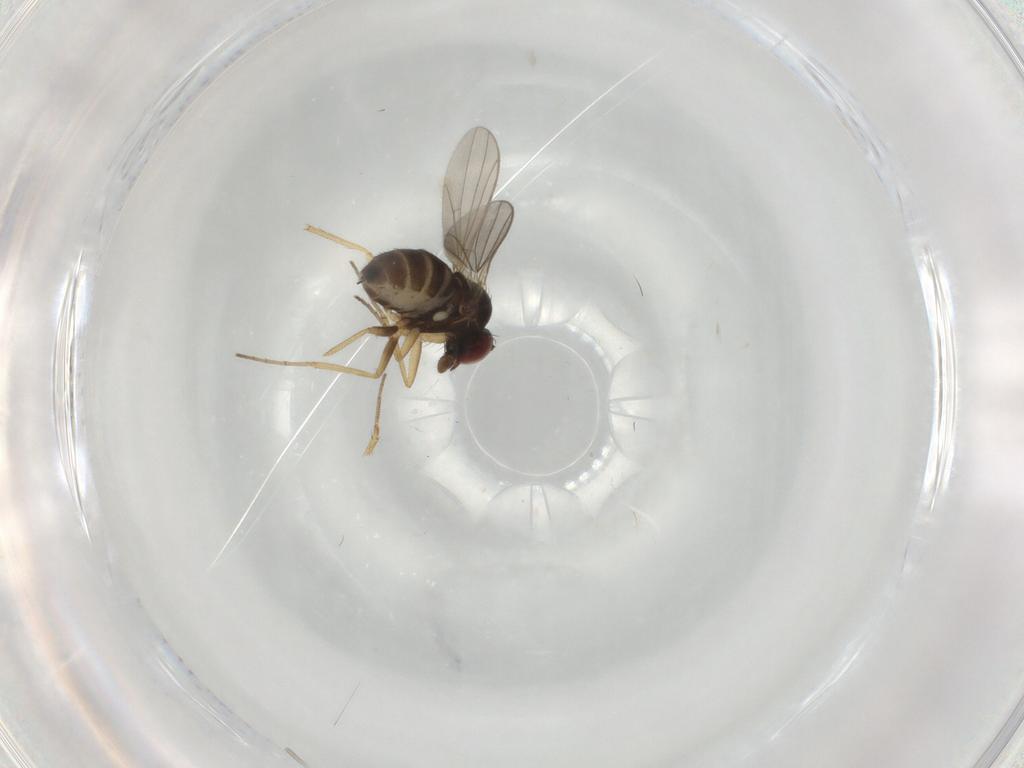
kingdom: Animalia
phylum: Arthropoda
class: Insecta
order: Diptera
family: Dolichopodidae
